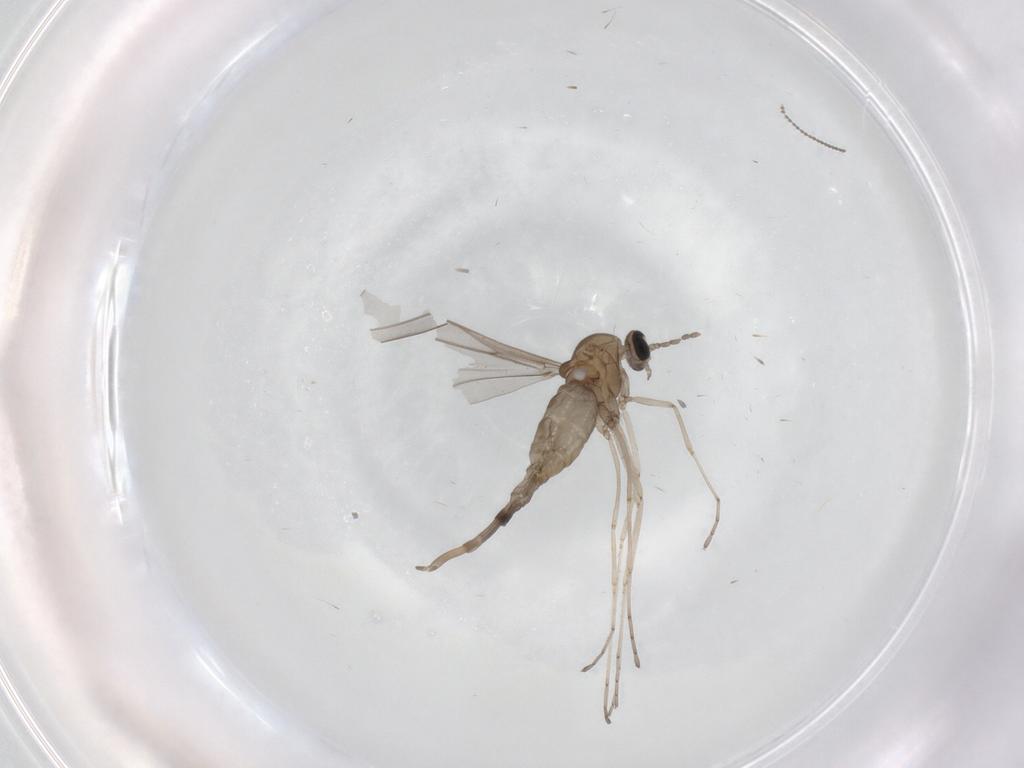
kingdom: Animalia
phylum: Arthropoda
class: Insecta
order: Diptera
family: Cecidomyiidae
